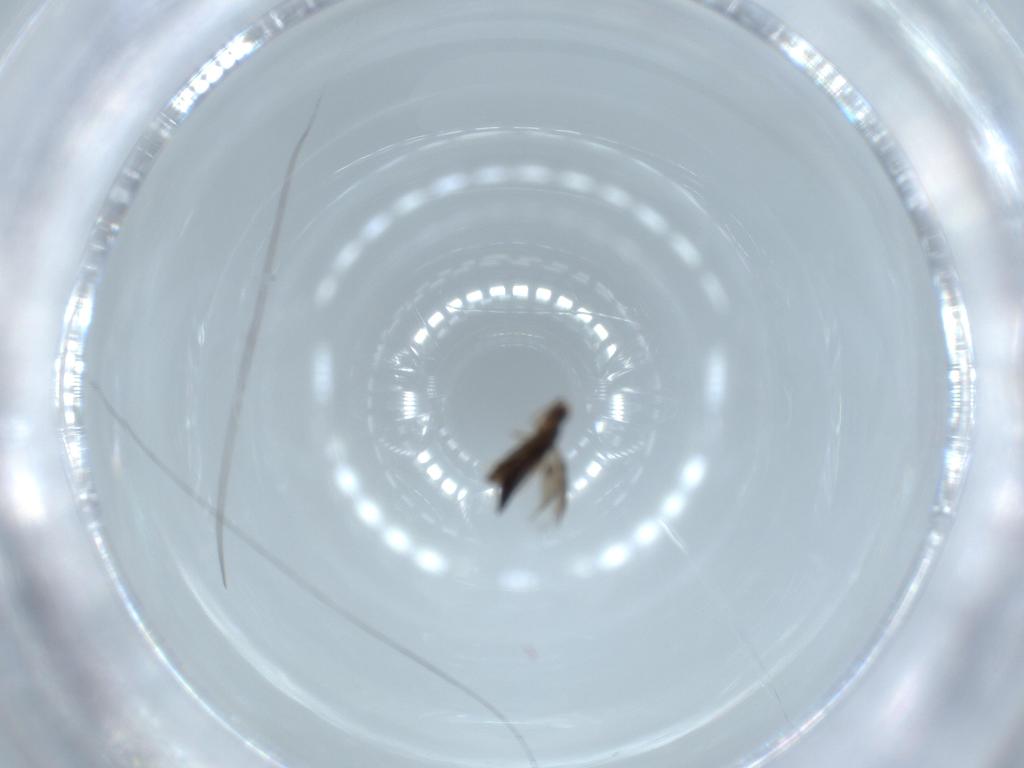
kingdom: Animalia
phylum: Arthropoda
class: Insecta
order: Hymenoptera
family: Signiphoridae
